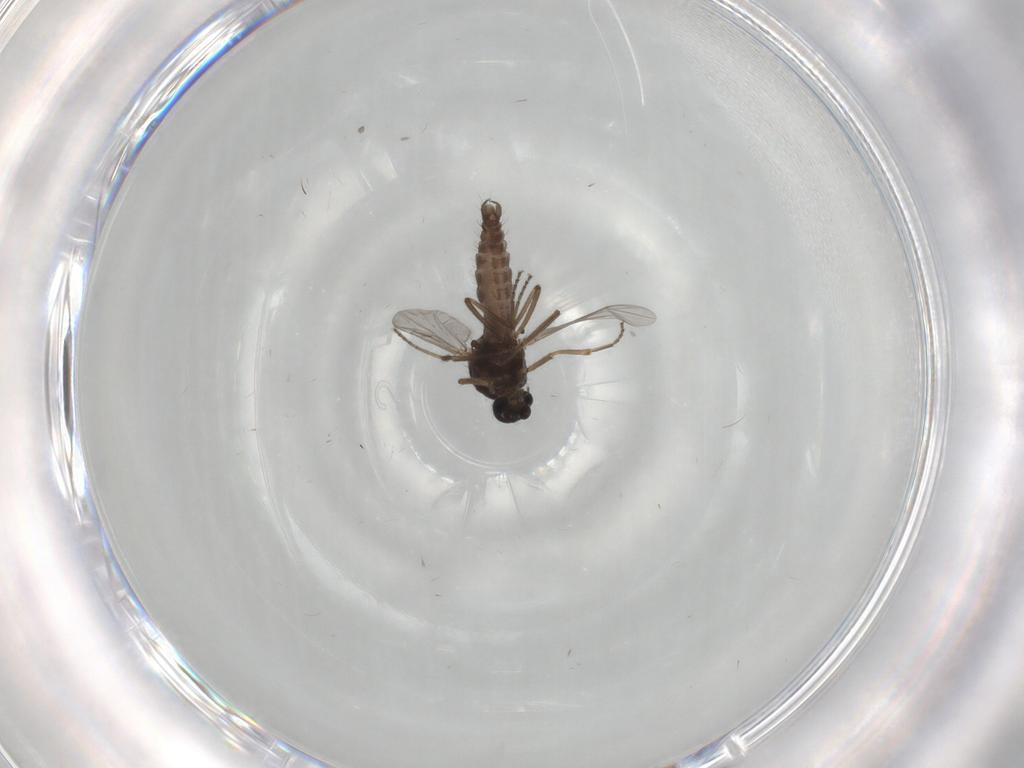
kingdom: Animalia
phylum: Arthropoda
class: Insecta
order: Diptera
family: Ceratopogonidae
